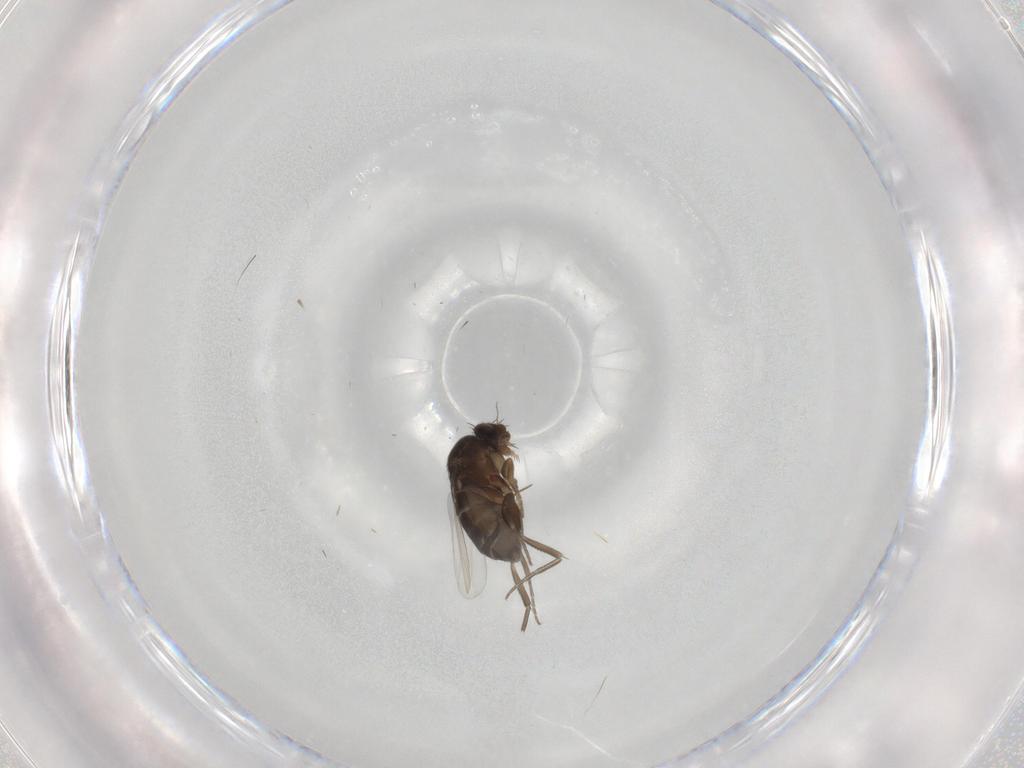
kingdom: Animalia
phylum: Arthropoda
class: Insecta
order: Diptera
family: Phoridae
